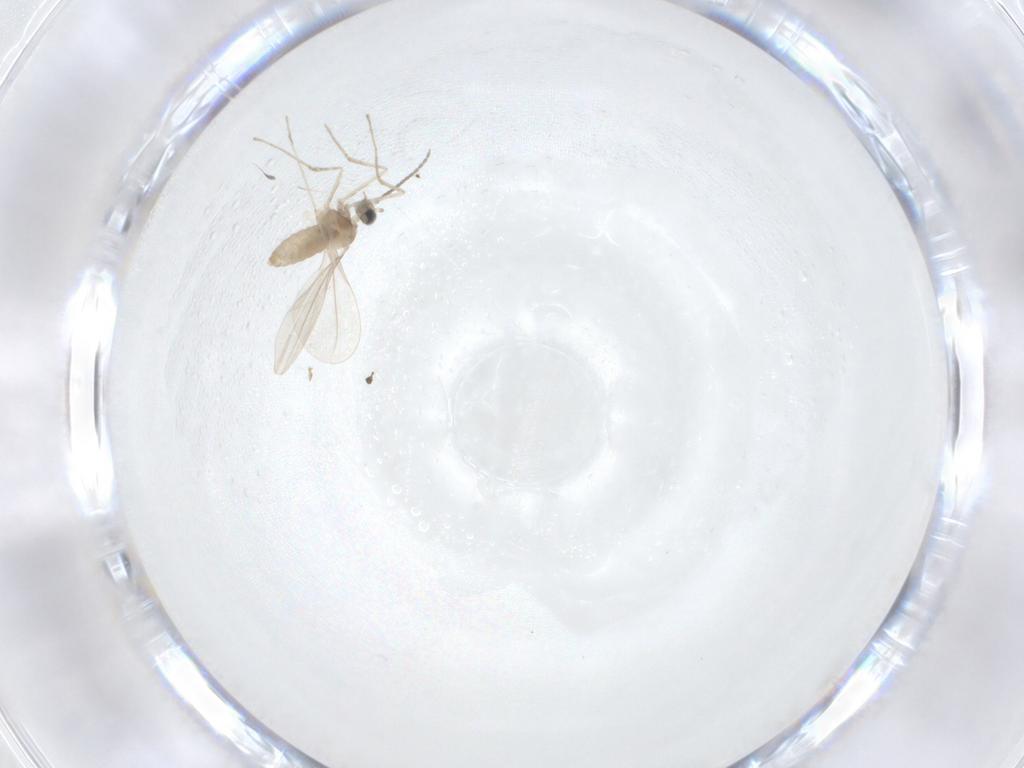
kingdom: Animalia
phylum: Arthropoda
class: Insecta
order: Diptera
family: Cecidomyiidae
